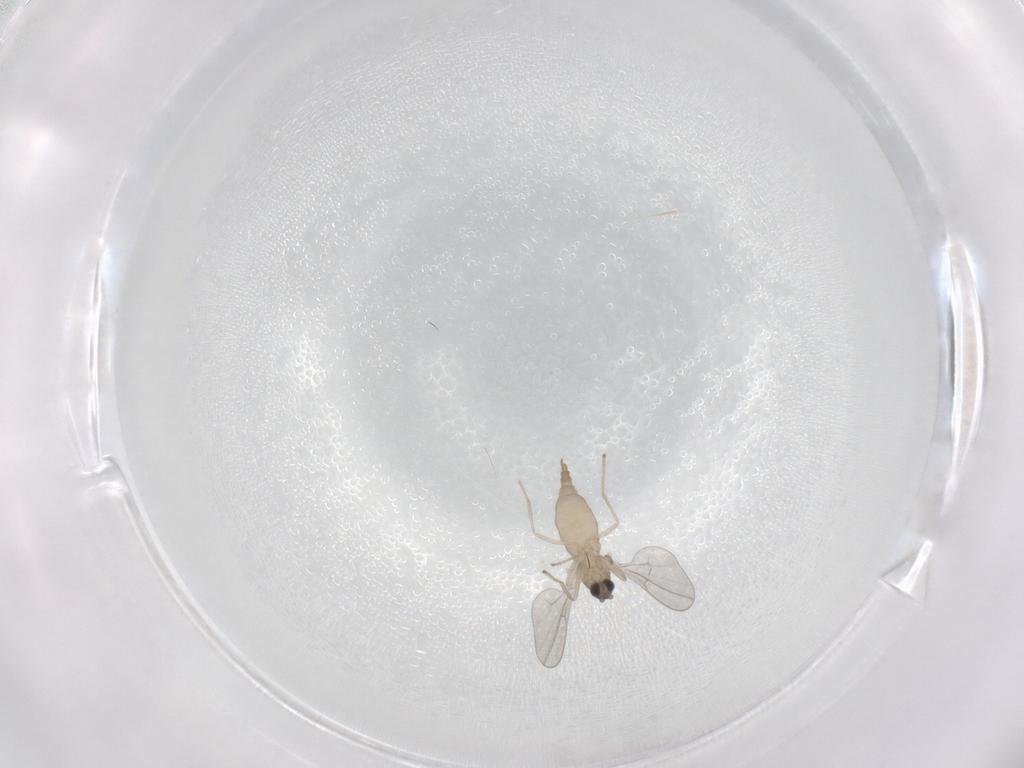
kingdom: Animalia
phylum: Arthropoda
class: Insecta
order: Diptera
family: Cecidomyiidae
